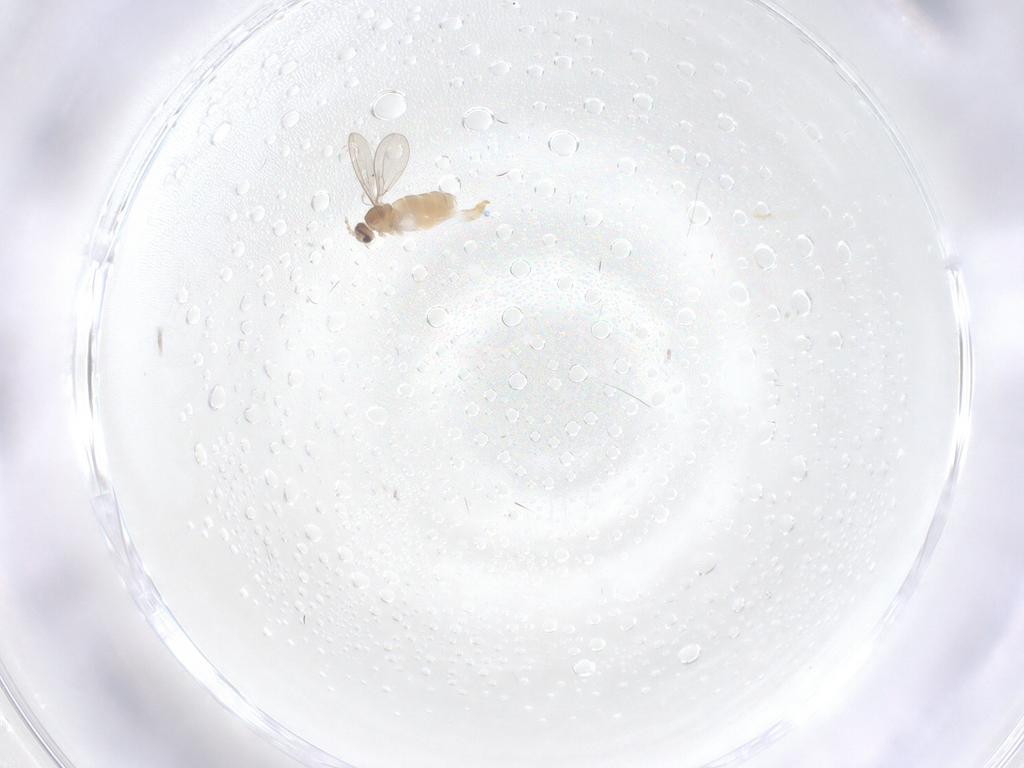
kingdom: Animalia
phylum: Arthropoda
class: Insecta
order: Diptera
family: Cecidomyiidae
